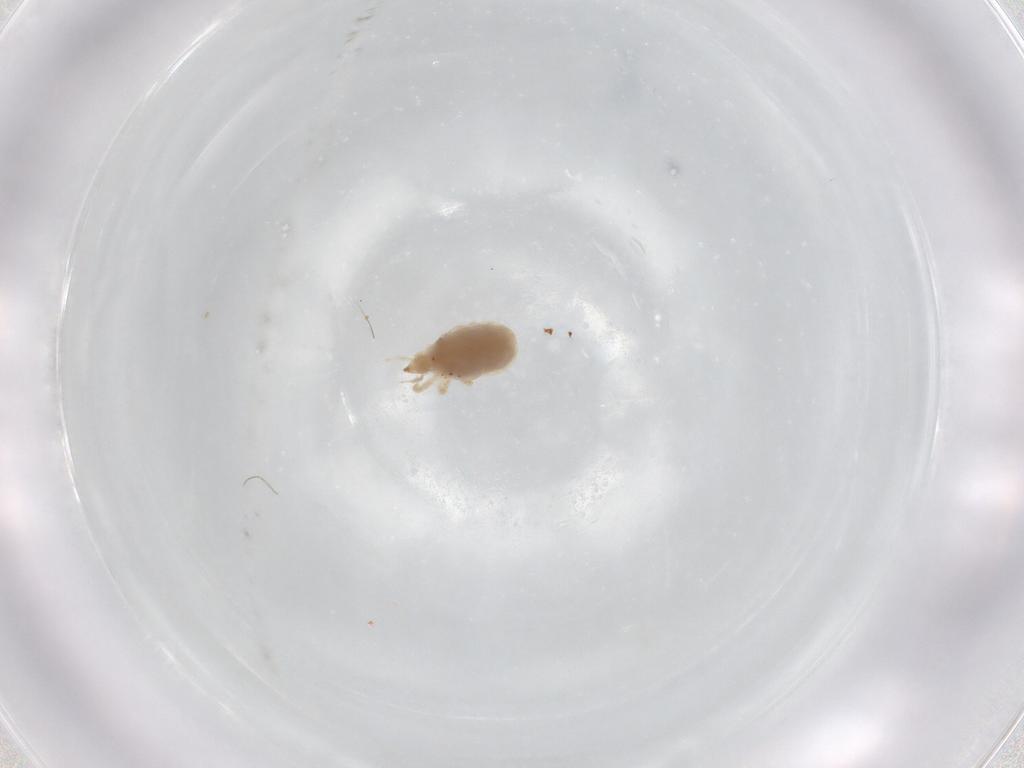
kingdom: Animalia
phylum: Arthropoda
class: Arachnida
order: Trombidiformes
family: Bdellidae
